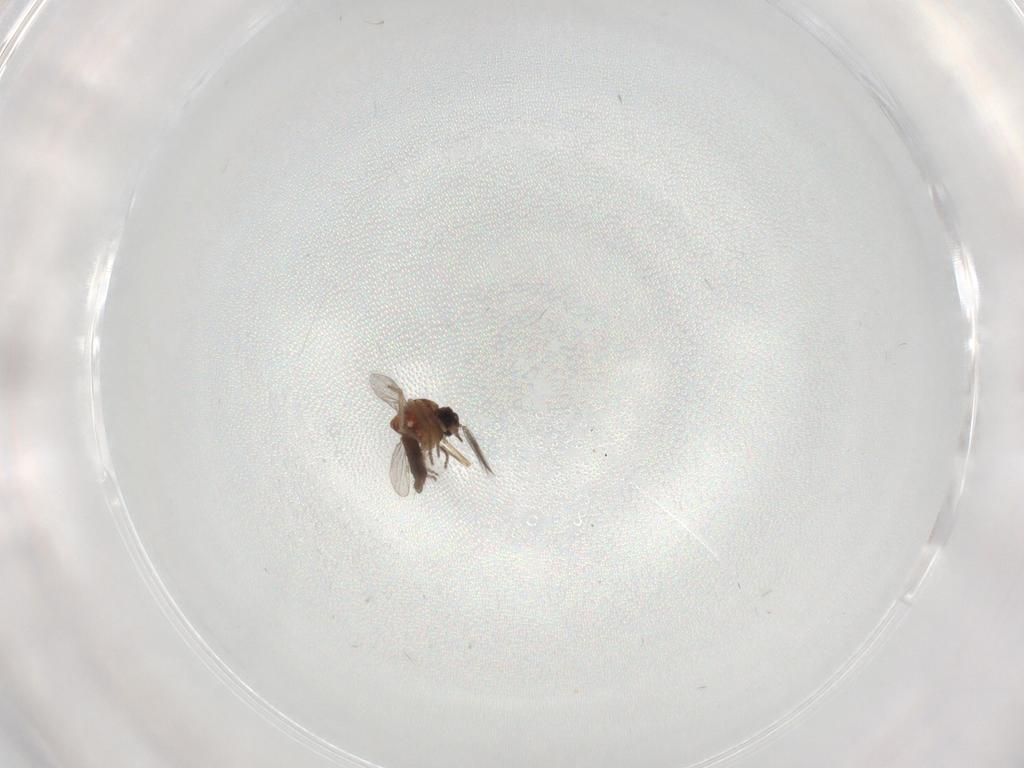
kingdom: Animalia
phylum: Arthropoda
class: Insecta
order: Diptera
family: Ceratopogonidae
